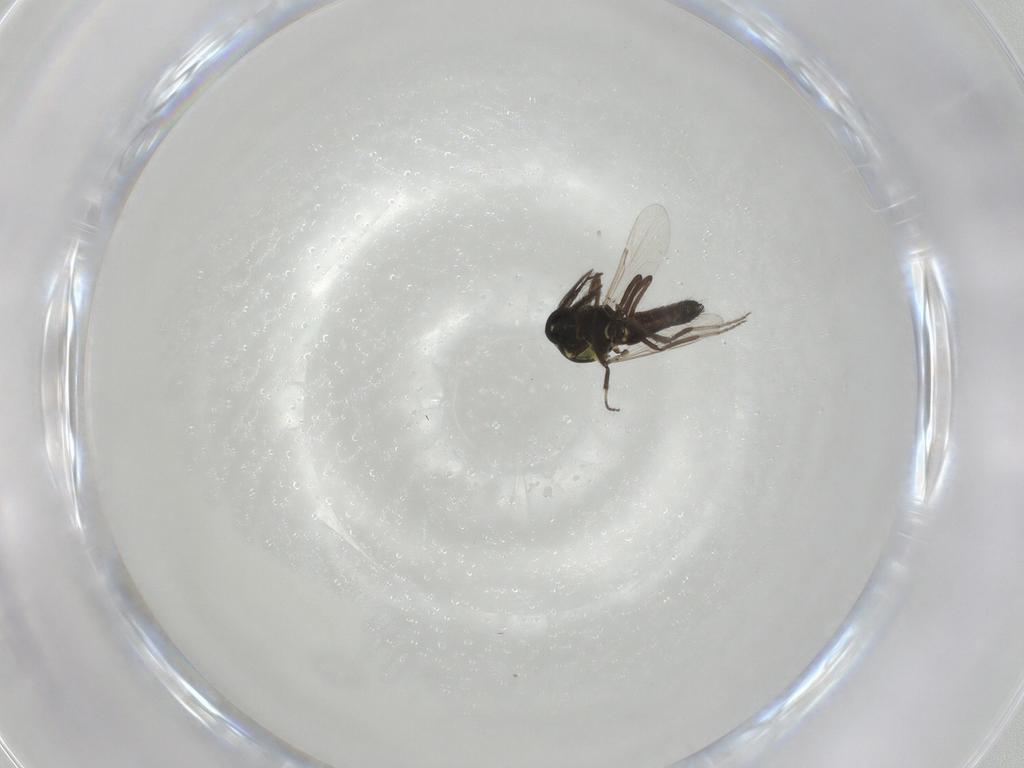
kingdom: Animalia
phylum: Arthropoda
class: Insecta
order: Diptera
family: Ceratopogonidae
